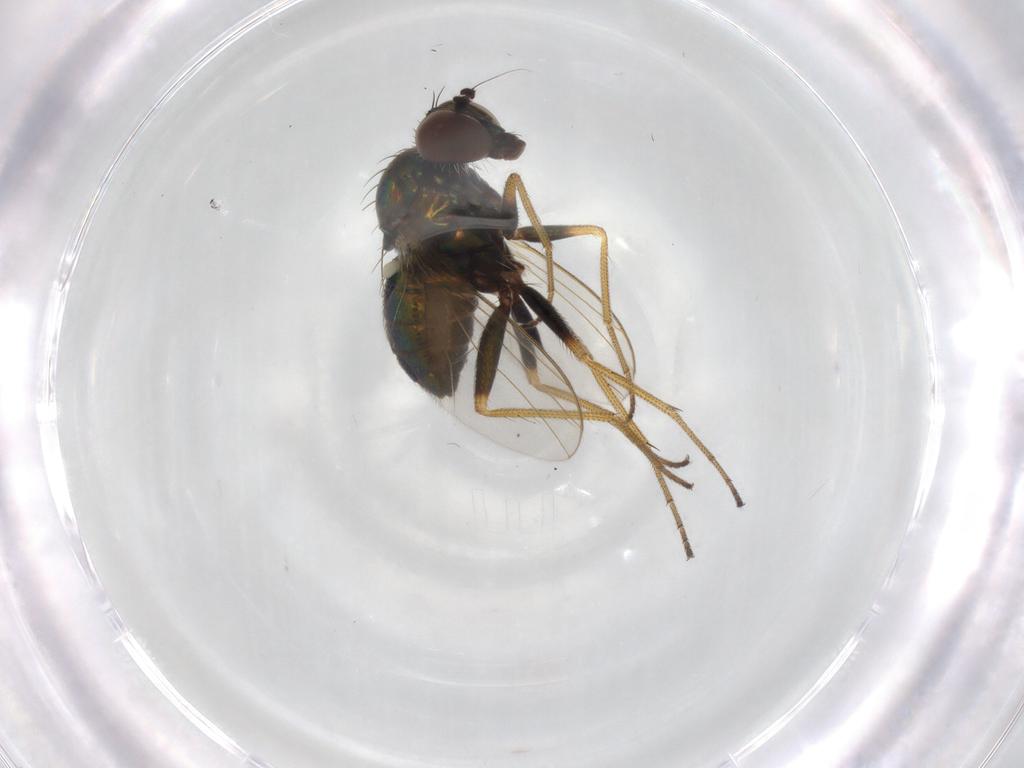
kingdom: Animalia
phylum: Arthropoda
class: Insecta
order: Diptera
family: Dolichopodidae
